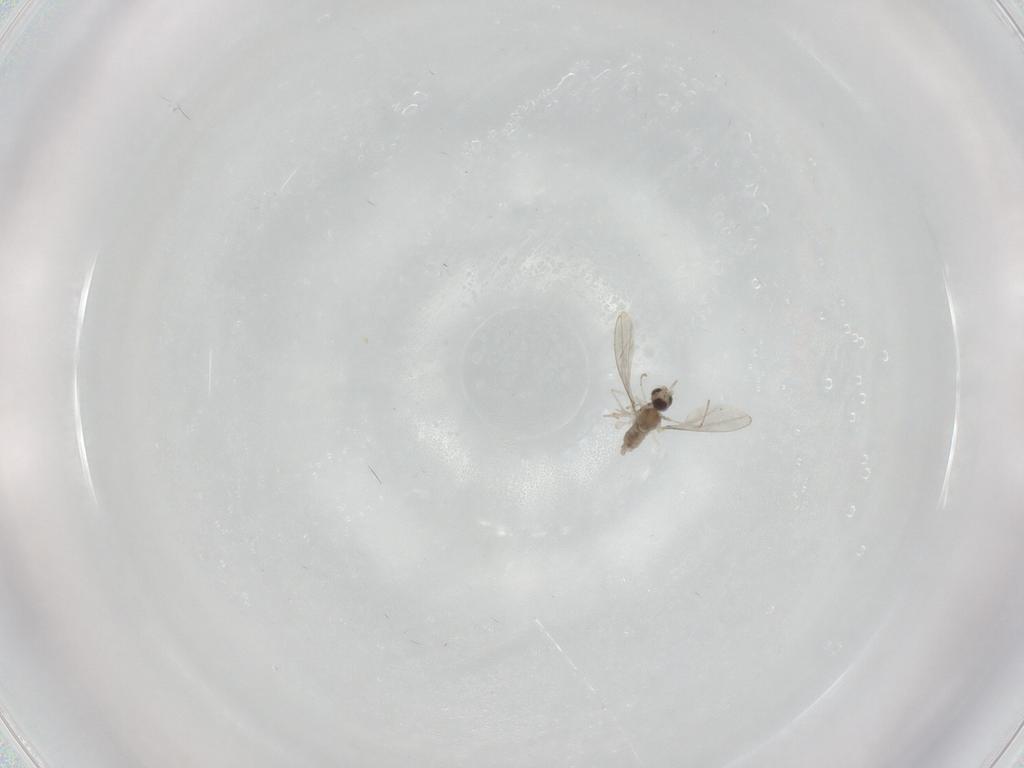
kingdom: Animalia
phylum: Arthropoda
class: Insecta
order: Diptera
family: Cecidomyiidae
